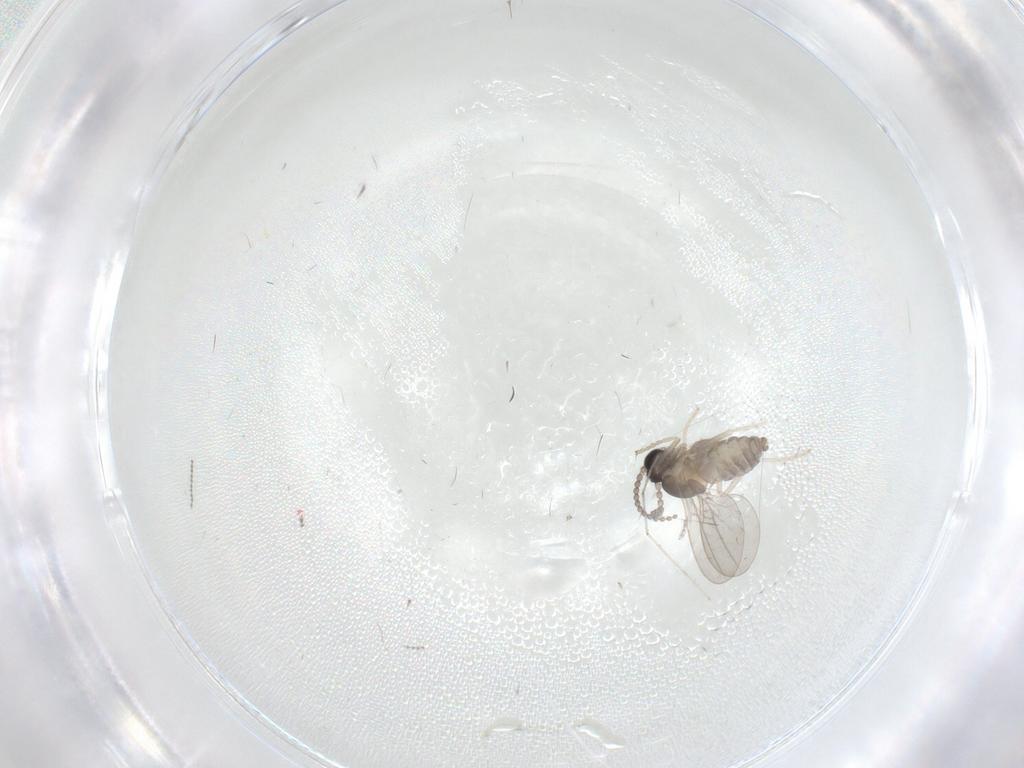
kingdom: Animalia
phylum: Arthropoda
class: Insecta
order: Diptera
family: Cecidomyiidae
